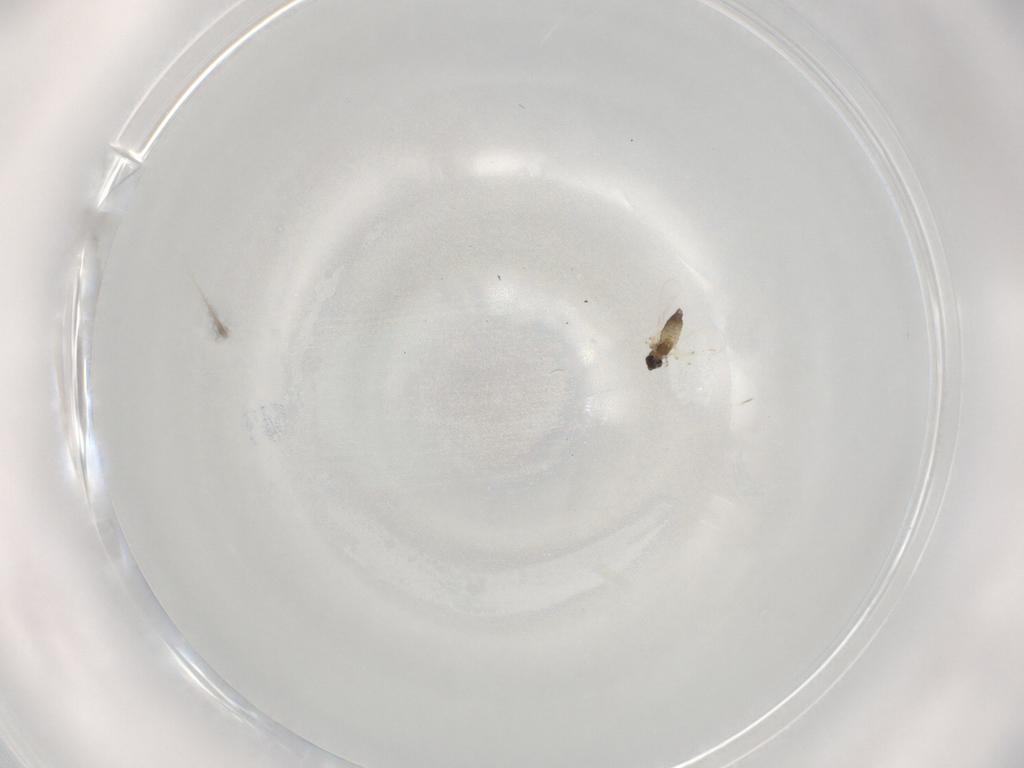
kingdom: Animalia
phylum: Arthropoda
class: Insecta
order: Diptera
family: Chironomidae
